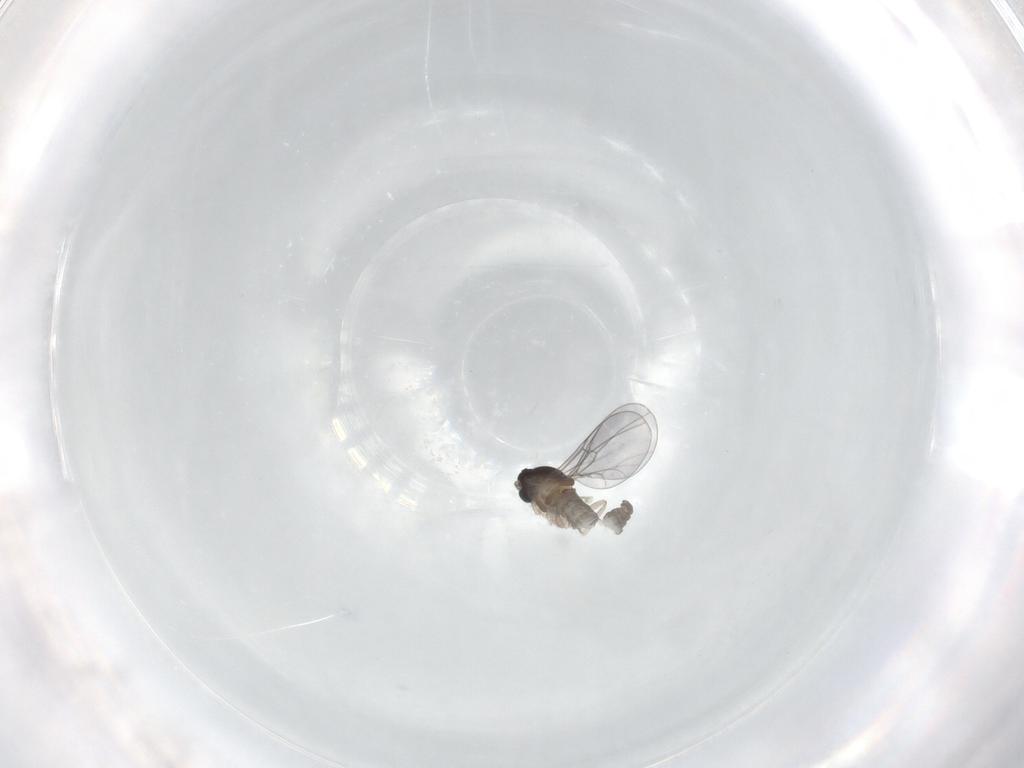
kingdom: Animalia
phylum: Arthropoda
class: Insecta
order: Diptera
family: Cecidomyiidae
